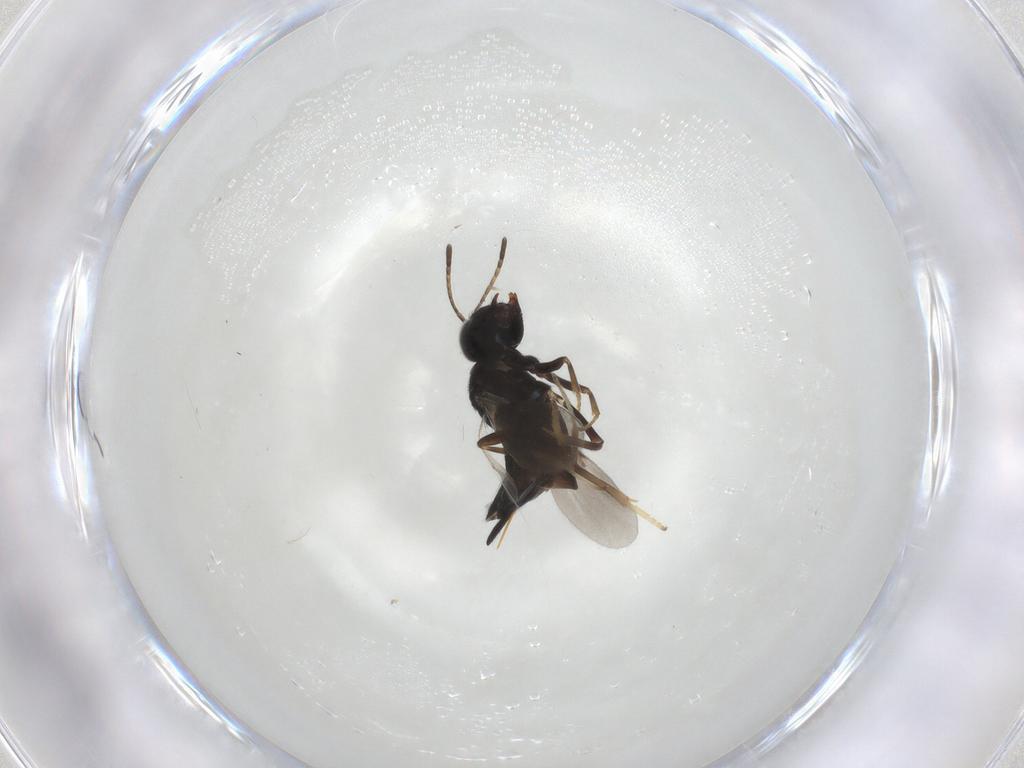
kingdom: Animalia
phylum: Arthropoda
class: Insecta
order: Hymenoptera
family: Encyrtidae
